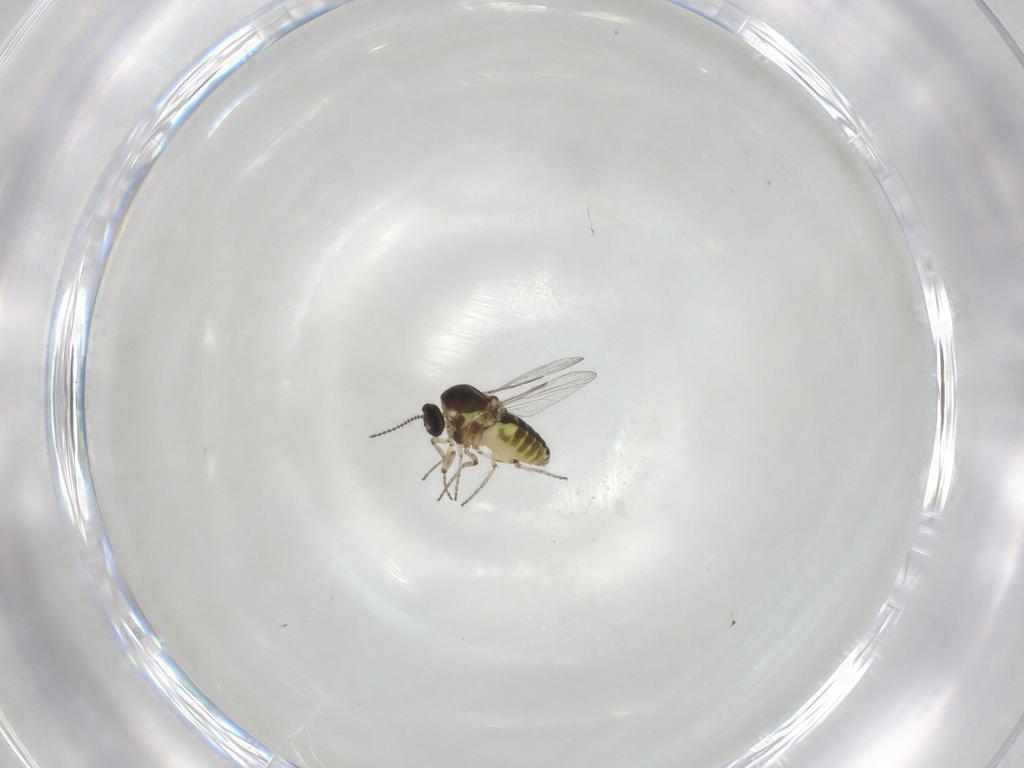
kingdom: Animalia
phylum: Arthropoda
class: Insecta
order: Diptera
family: Ceratopogonidae
